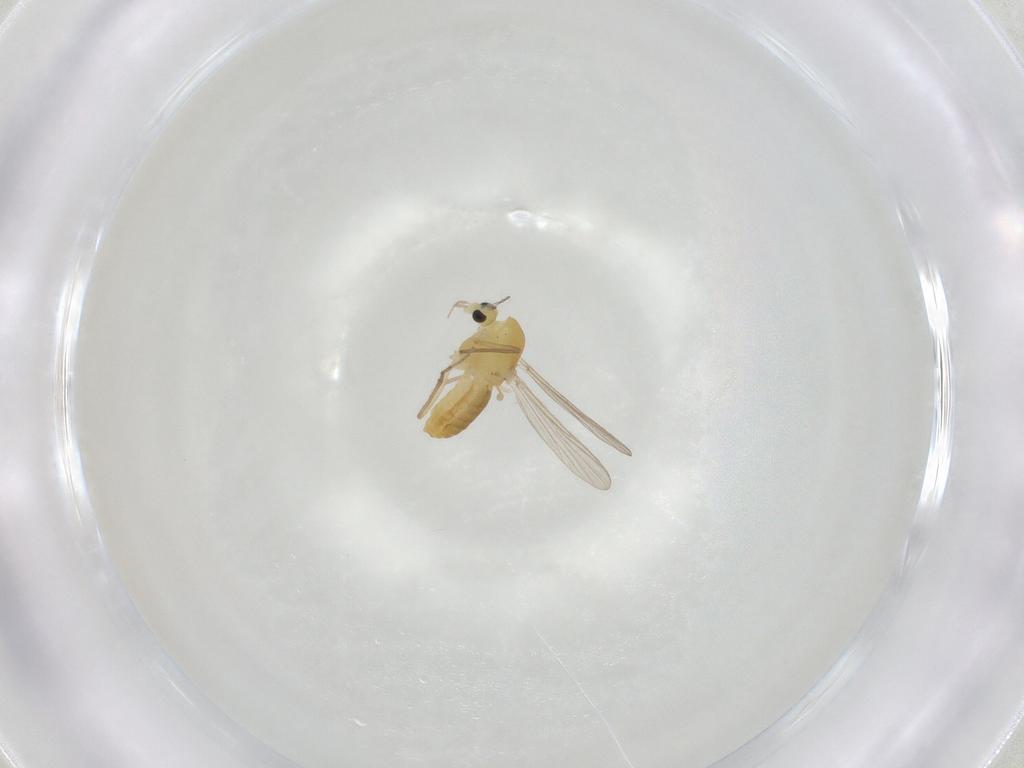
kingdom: Animalia
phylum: Arthropoda
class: Insecta
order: Diptera
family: Chironomidae
